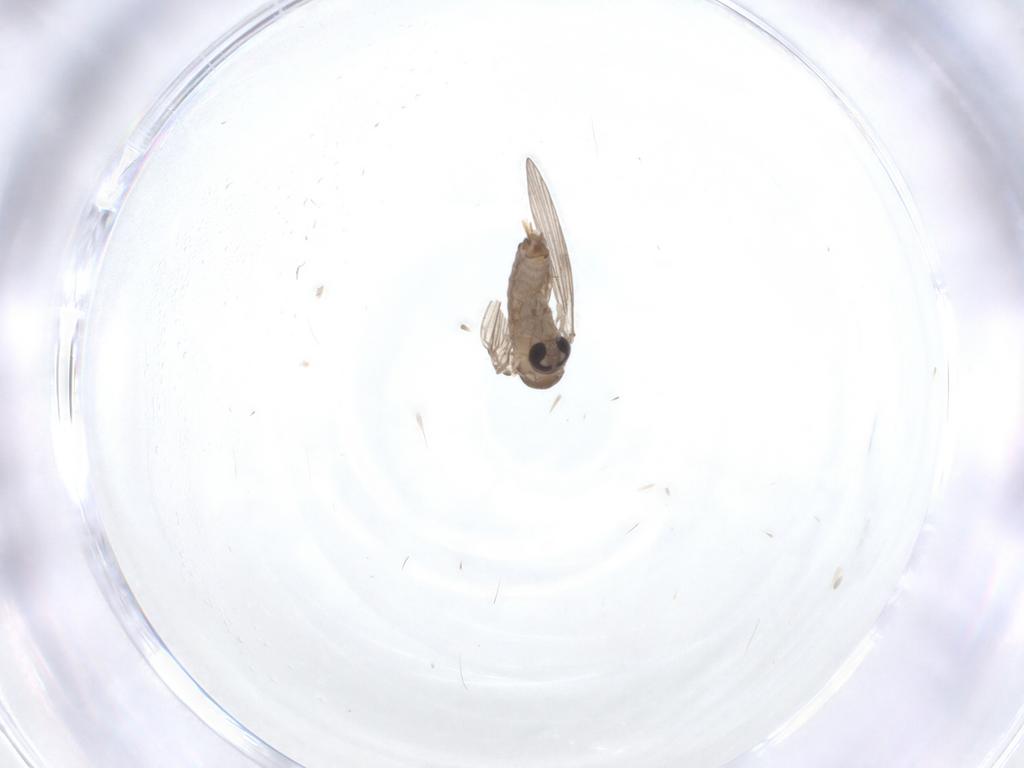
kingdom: Animalia
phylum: Arthropoda
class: Insecta
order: Diptera
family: Psychodidae
